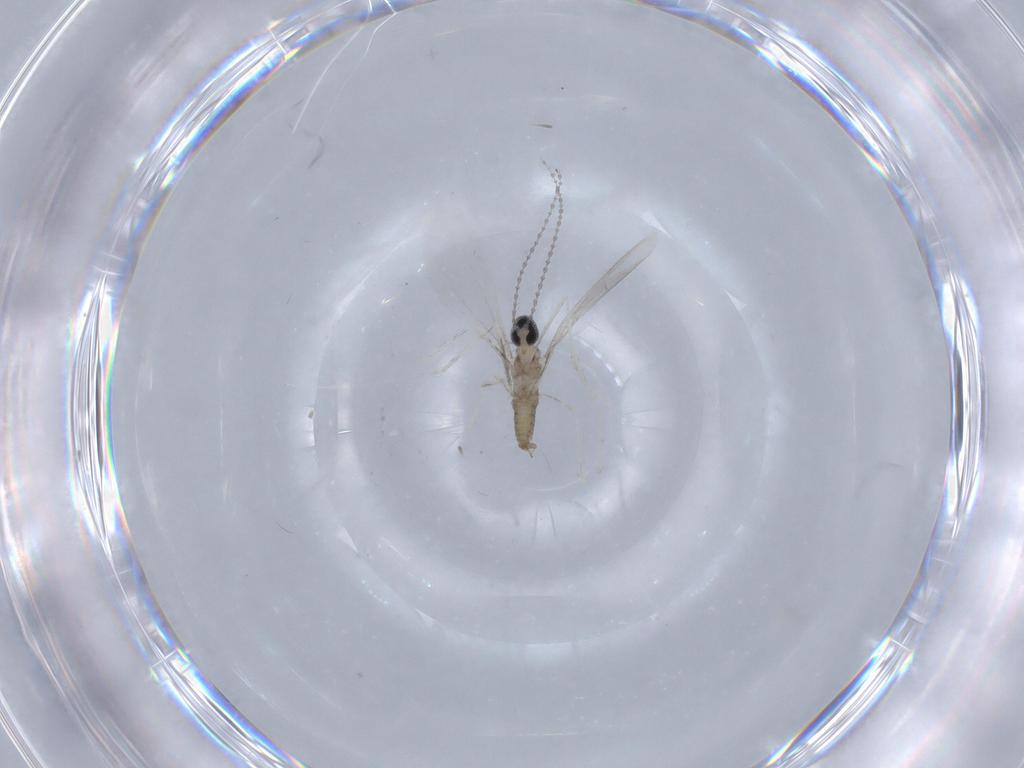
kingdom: Animalia
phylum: Arthropoda
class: Insecta
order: Diptera
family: Cecidomyiidae
